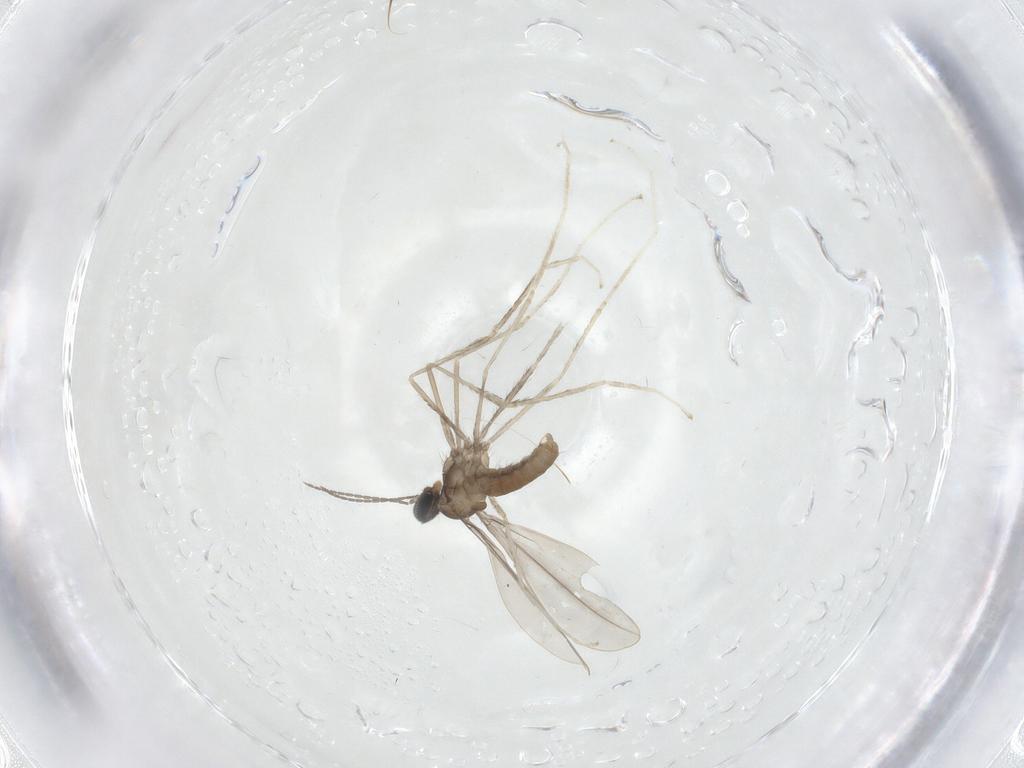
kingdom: Animalia
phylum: Arthropoda
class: Insecta
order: Diptera
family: Cecidomyiidae
